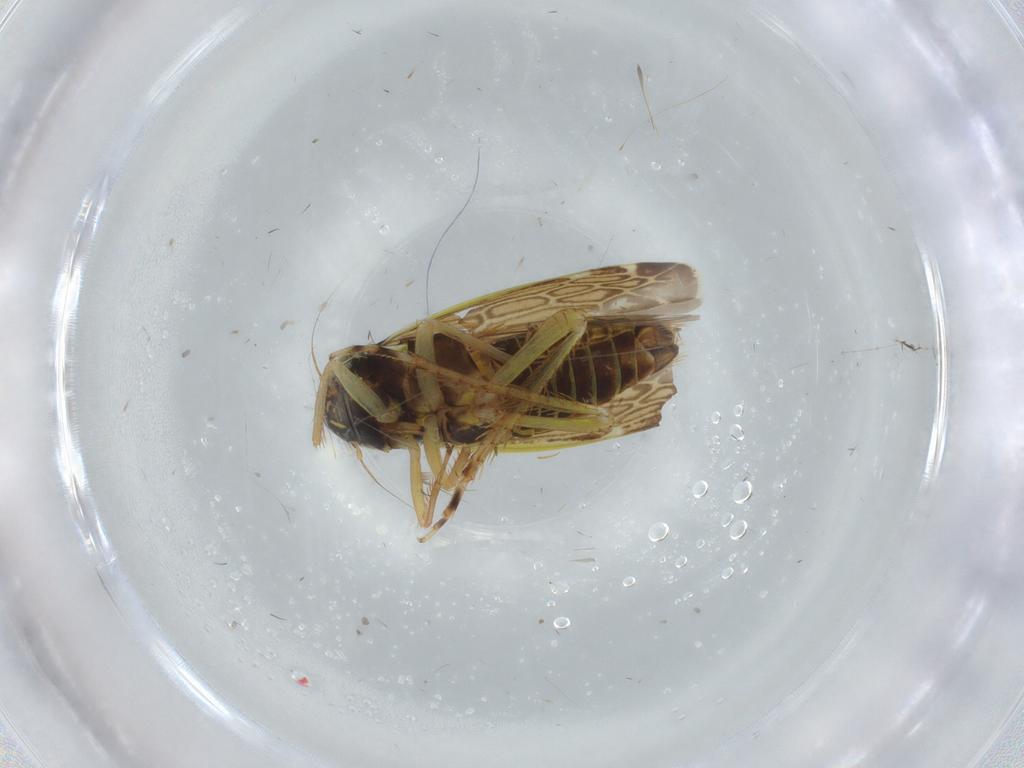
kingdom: Animalia
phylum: Arthropoda
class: Insecta
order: Hemiptera
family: Cicadellidae
